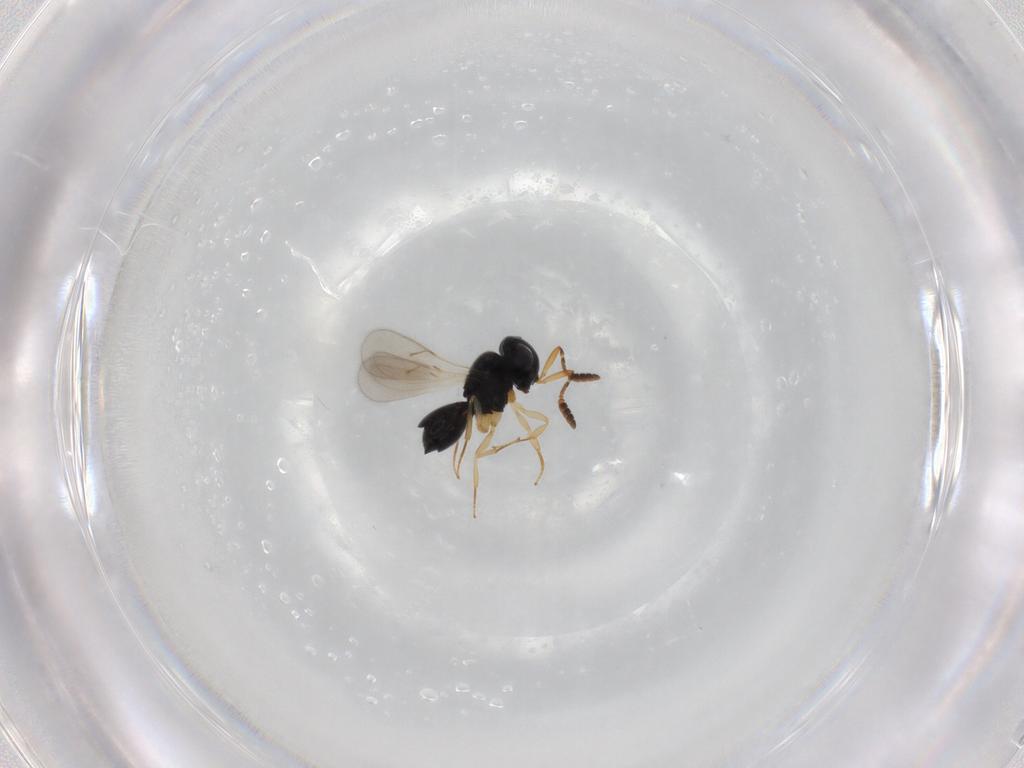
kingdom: Animalia
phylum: Arthropoda
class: Insecta
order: Hymenoptera
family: Scelionidae
